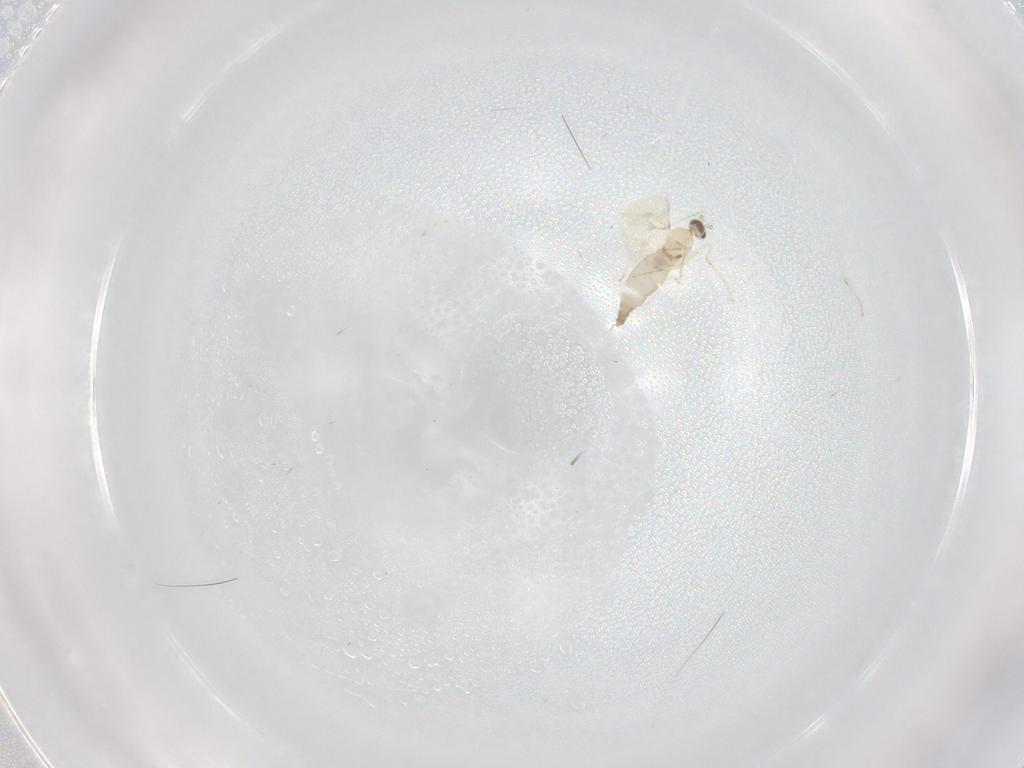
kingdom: Animalia
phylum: Arthropoda
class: Insecta
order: Diptera
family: Cecidomyiidae
